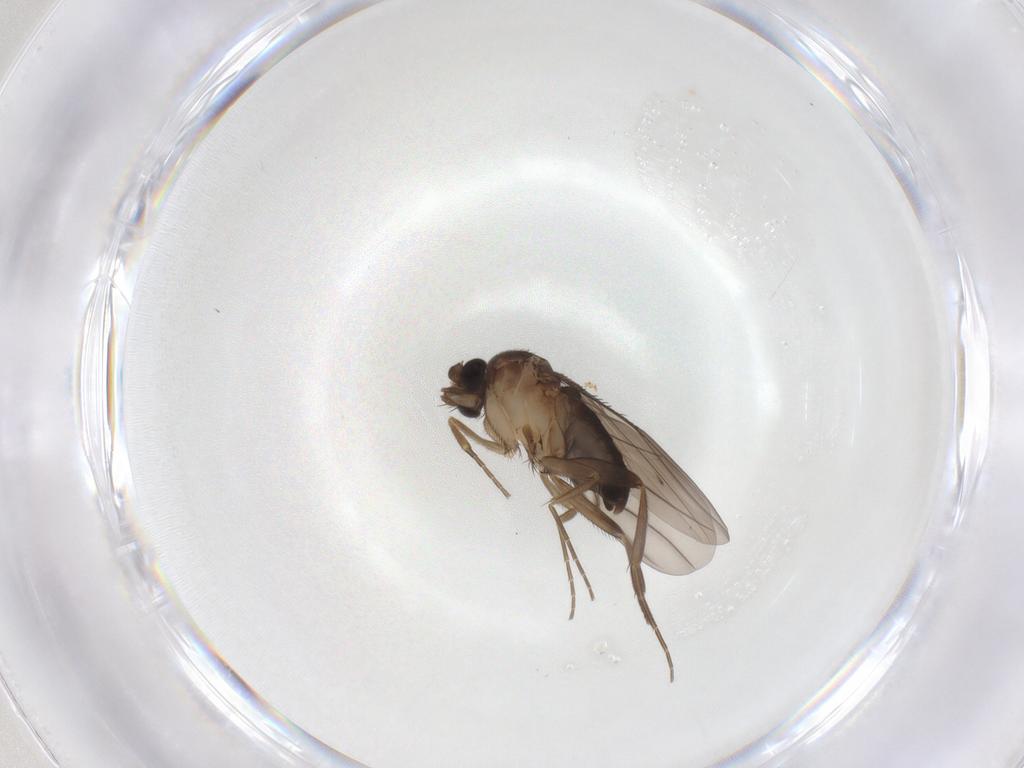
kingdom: Animalia
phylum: Arthropoda
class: Insecta
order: Diptera
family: Phoridae
